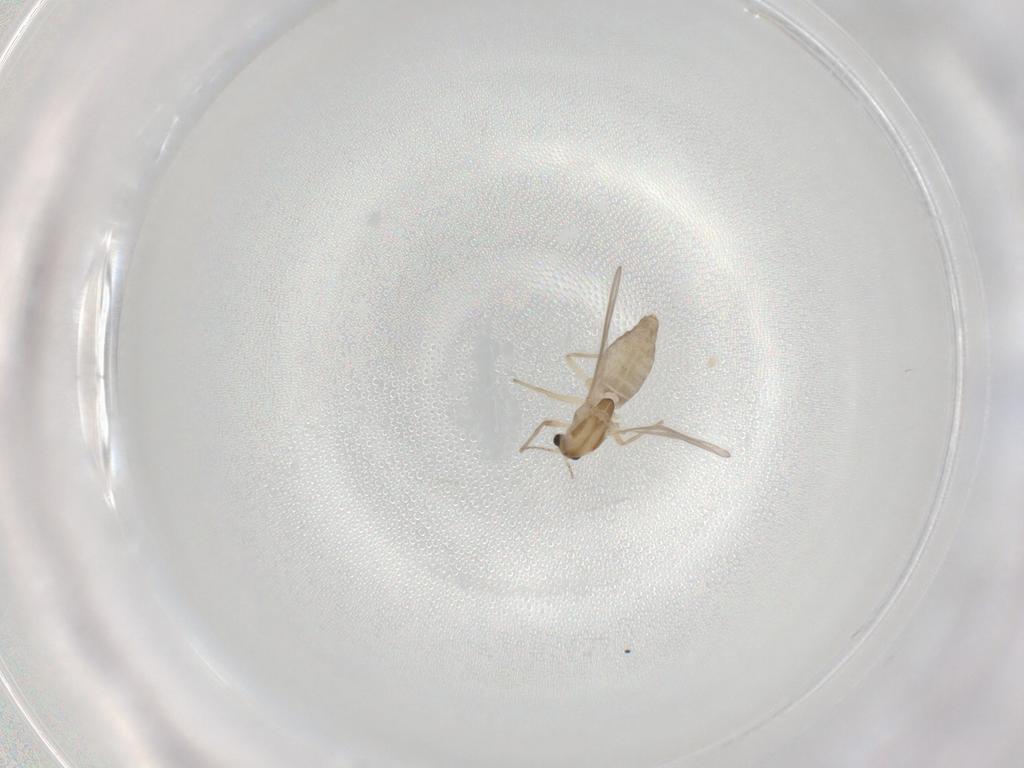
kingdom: Animalia
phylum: Arthropoda
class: Insecta
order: Diptera
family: Chironomidae
